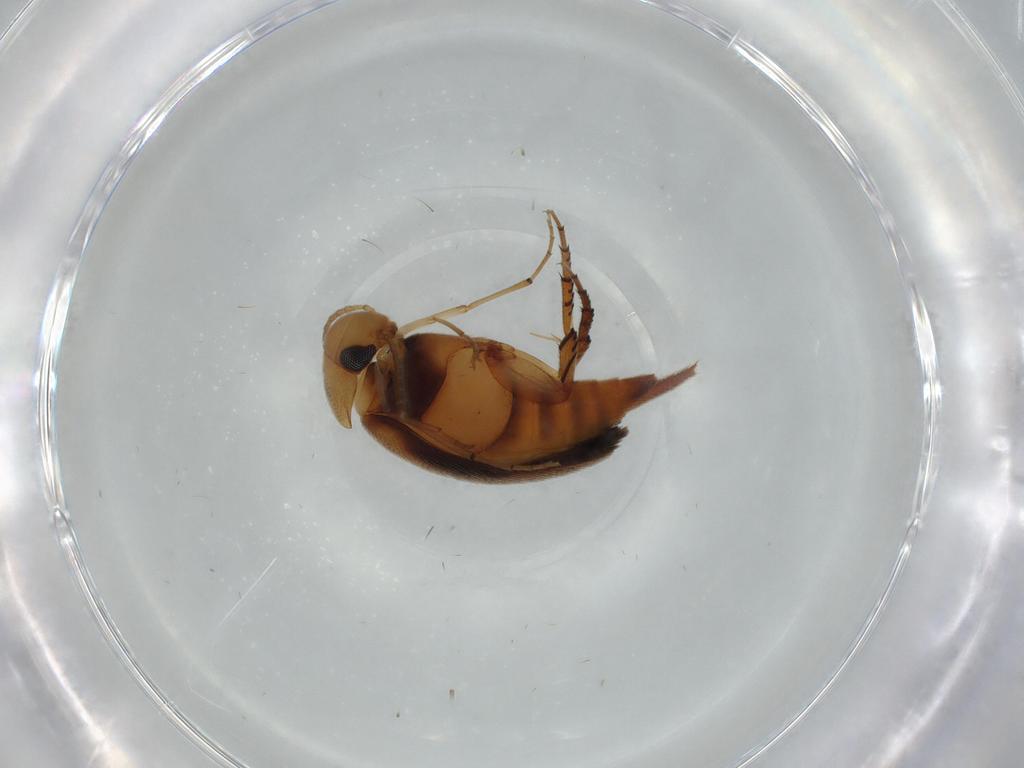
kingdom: Animalia
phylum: Arthropoda
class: Insecta
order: Coleoptera
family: Mordellidae
